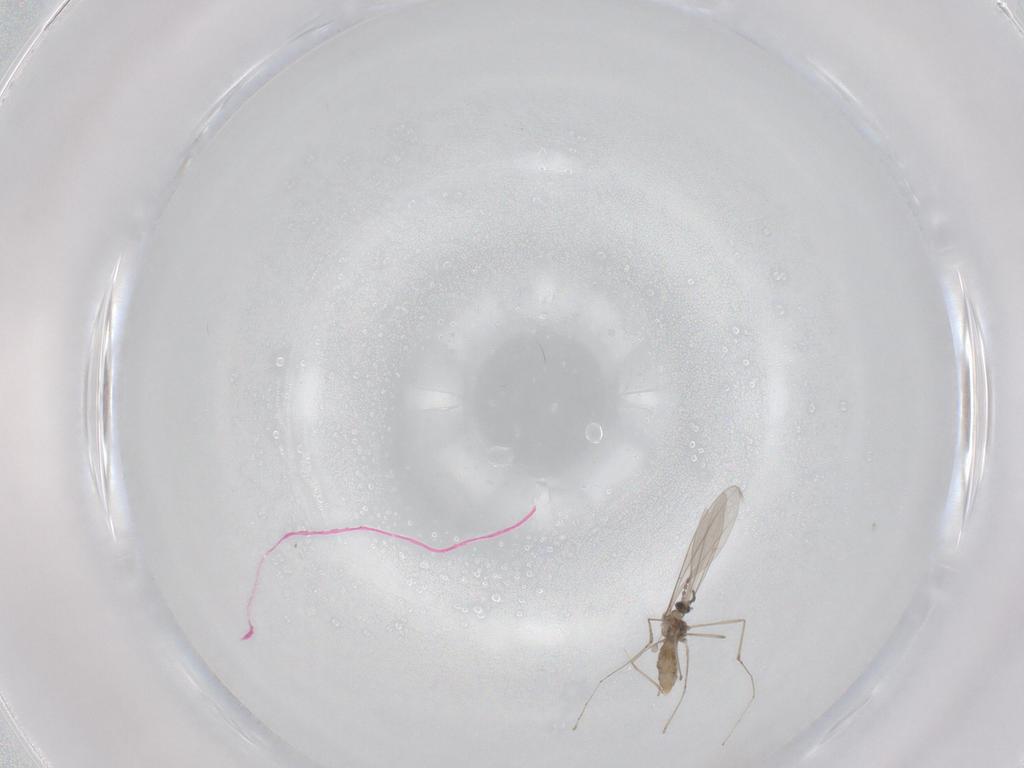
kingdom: Animalia
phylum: Arthropoda
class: Insecta
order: Diptera
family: Cecidomyiidae
